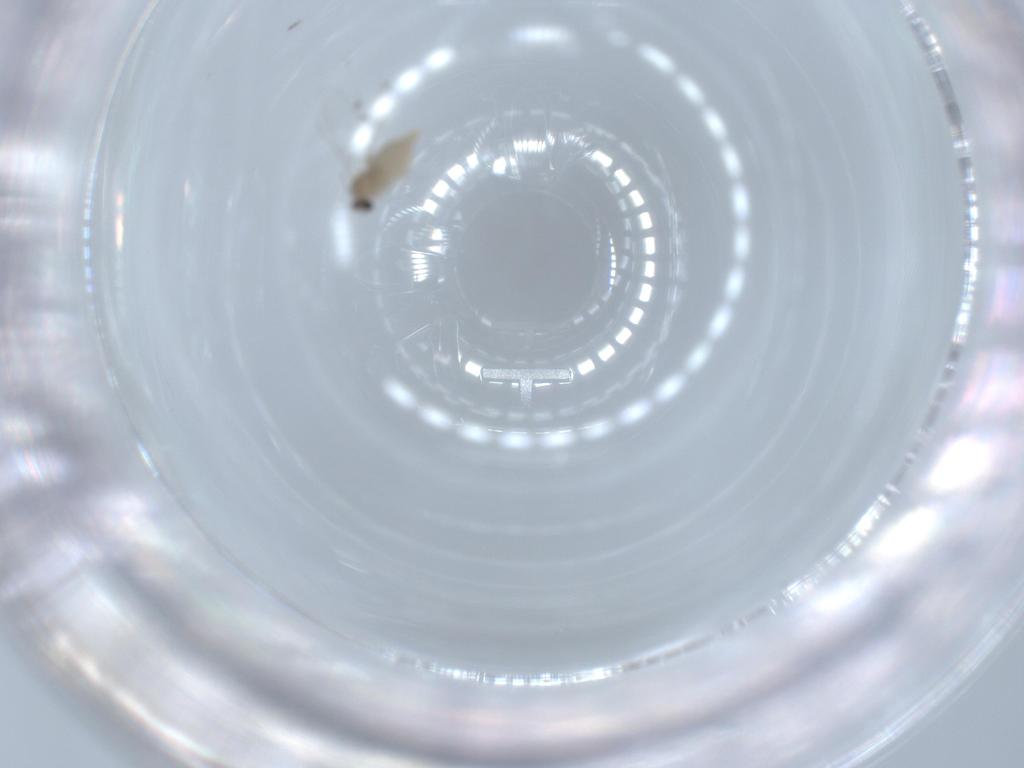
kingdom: Animalia
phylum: Arthropoda
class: Insecta
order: Diptera
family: Cecidomyiidae
